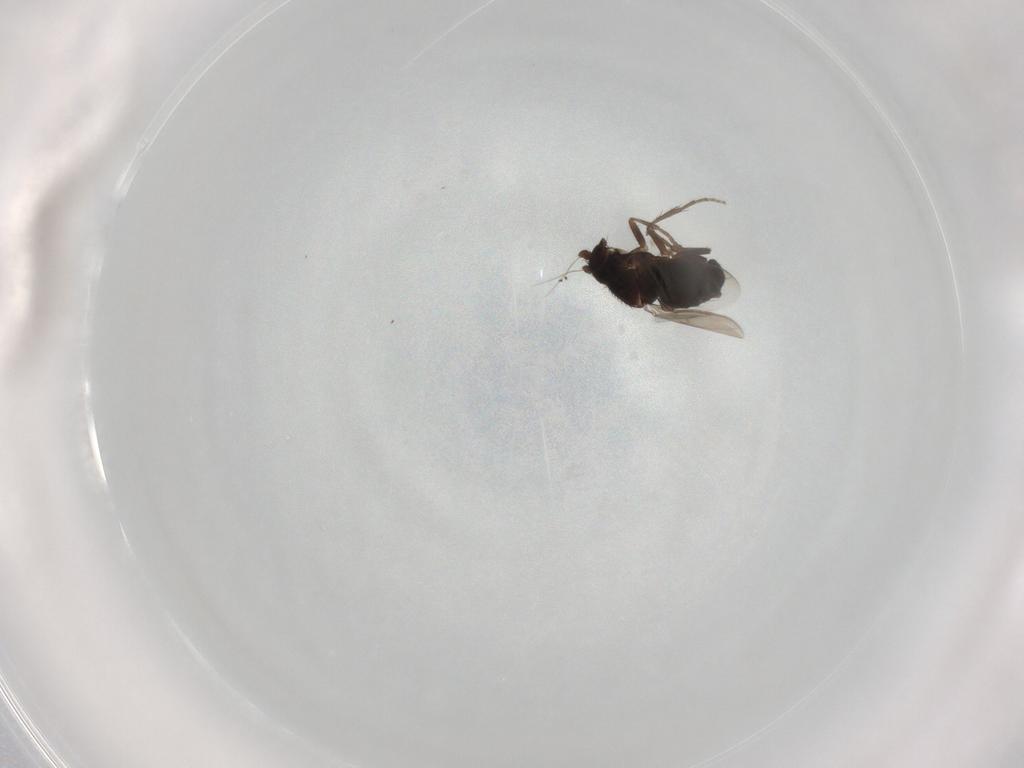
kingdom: Animalia
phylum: Arthropoda
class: Insecta
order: Diptera
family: Sphaeroceridae
